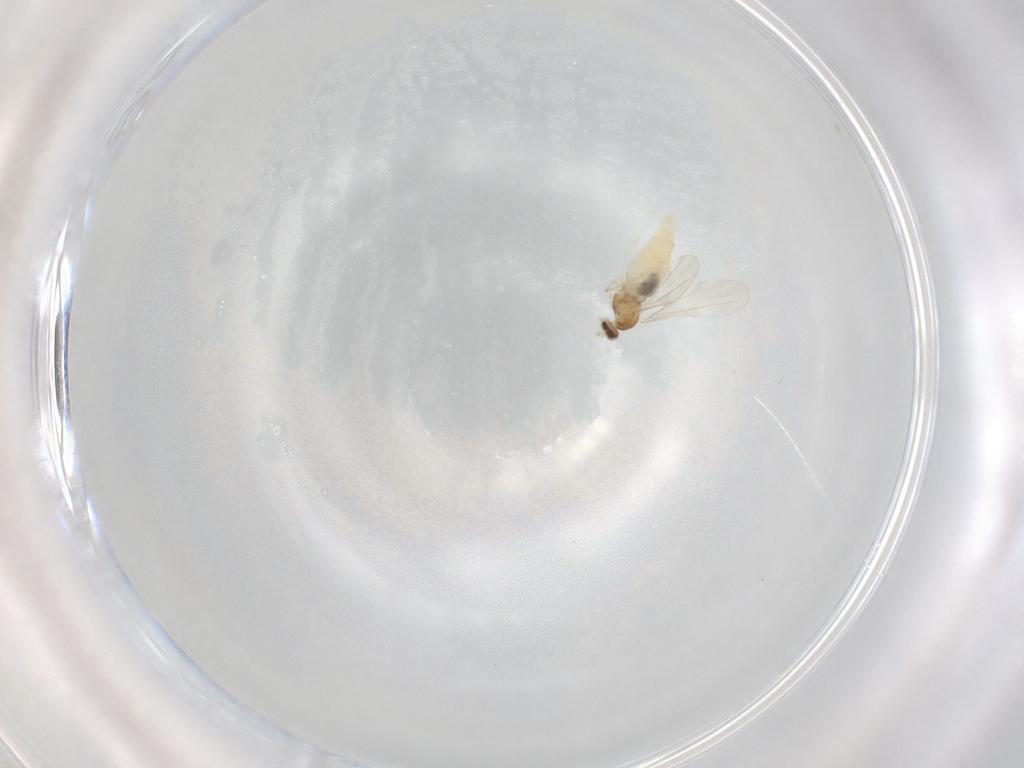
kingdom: Animalia
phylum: Arthropoda
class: Insecta
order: Diptera
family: Cecidomyiidae
